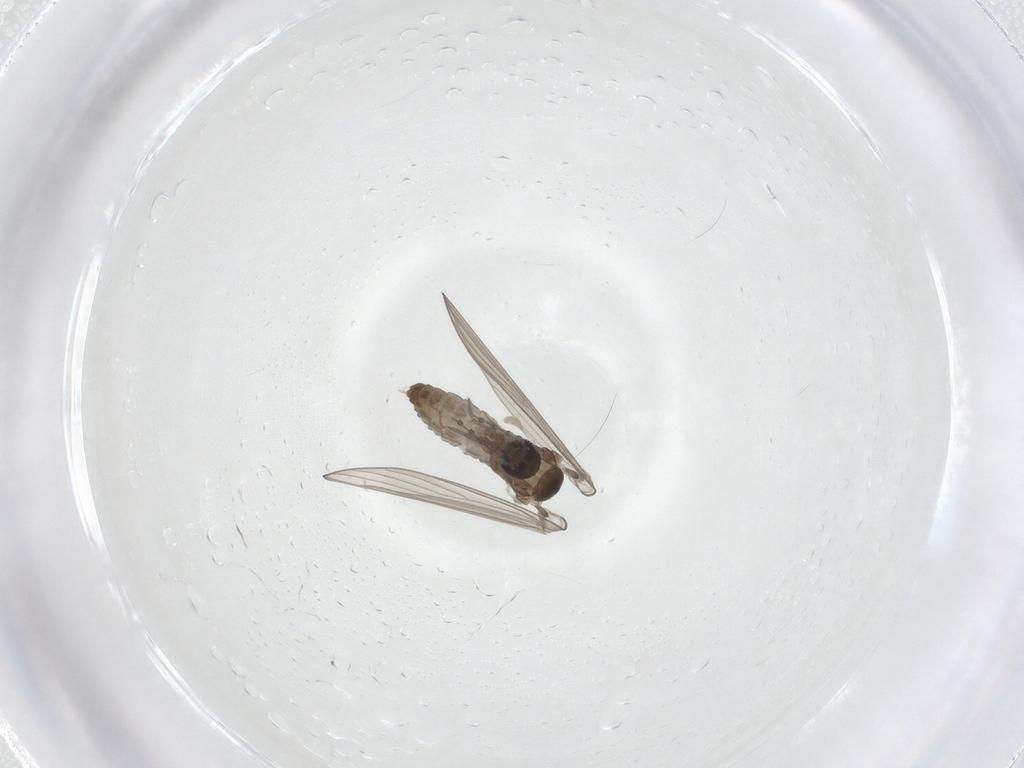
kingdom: Animalia
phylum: Arthropoda
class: Insecta
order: Diptera
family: Psychodidae
